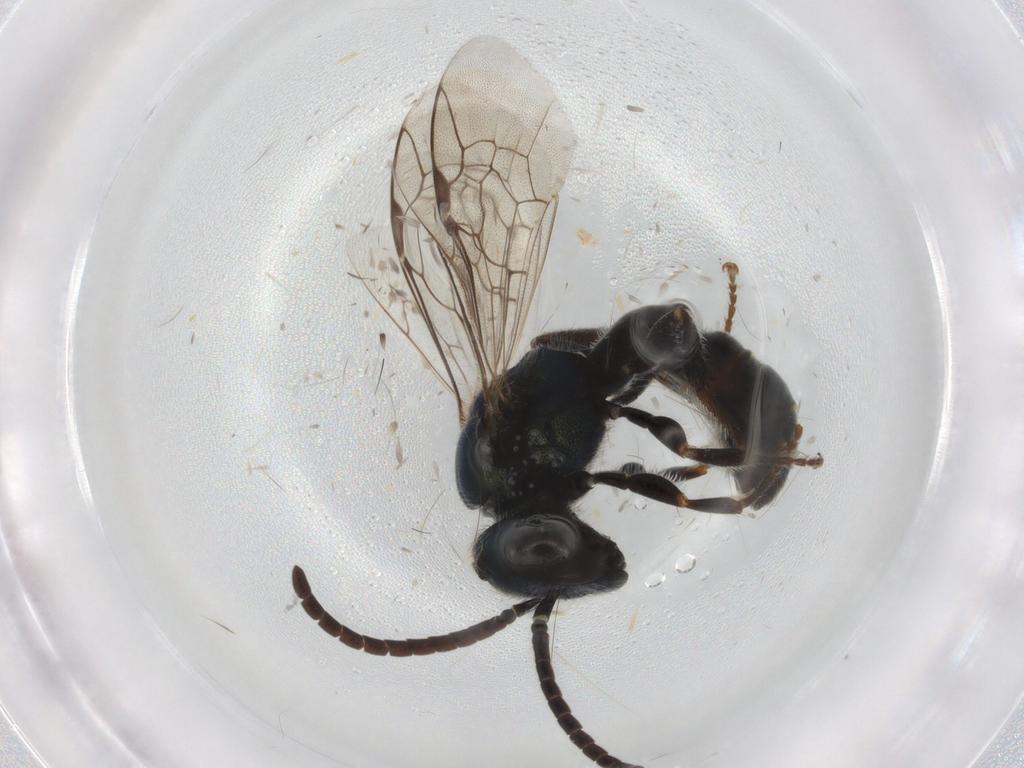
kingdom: Animalia
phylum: Arthropoda
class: Insecta
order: Hymenoptera
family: Halictidae
